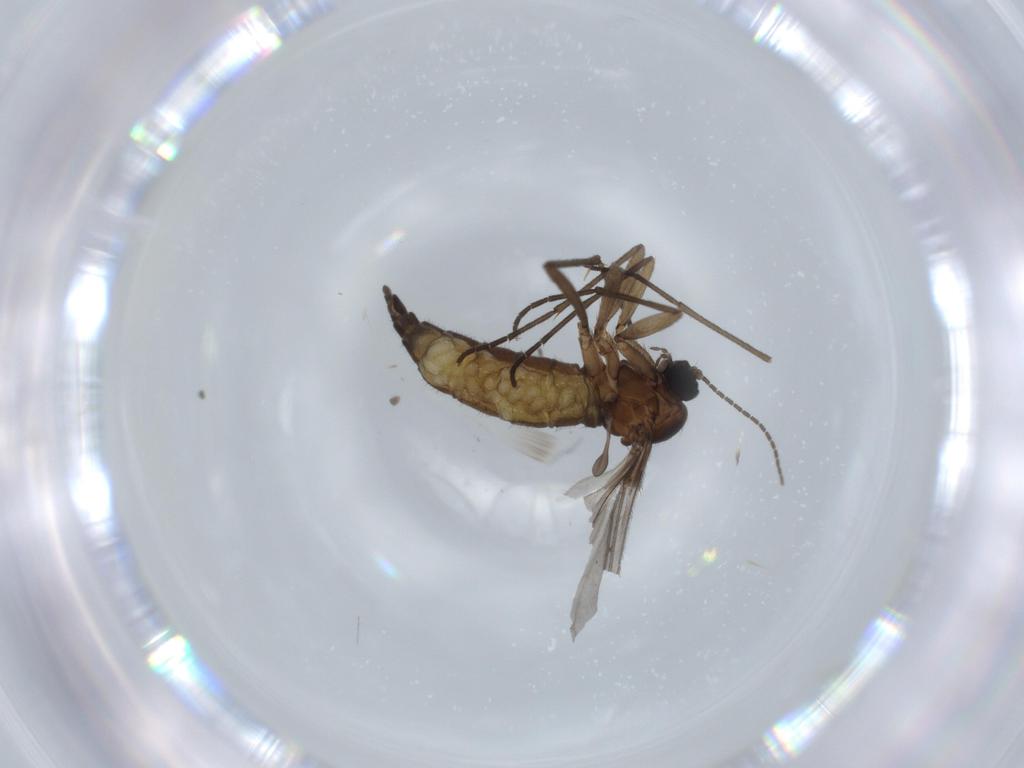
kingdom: Animalia
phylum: Arthropoda
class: Insecta
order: Diptera
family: Sciaridae
